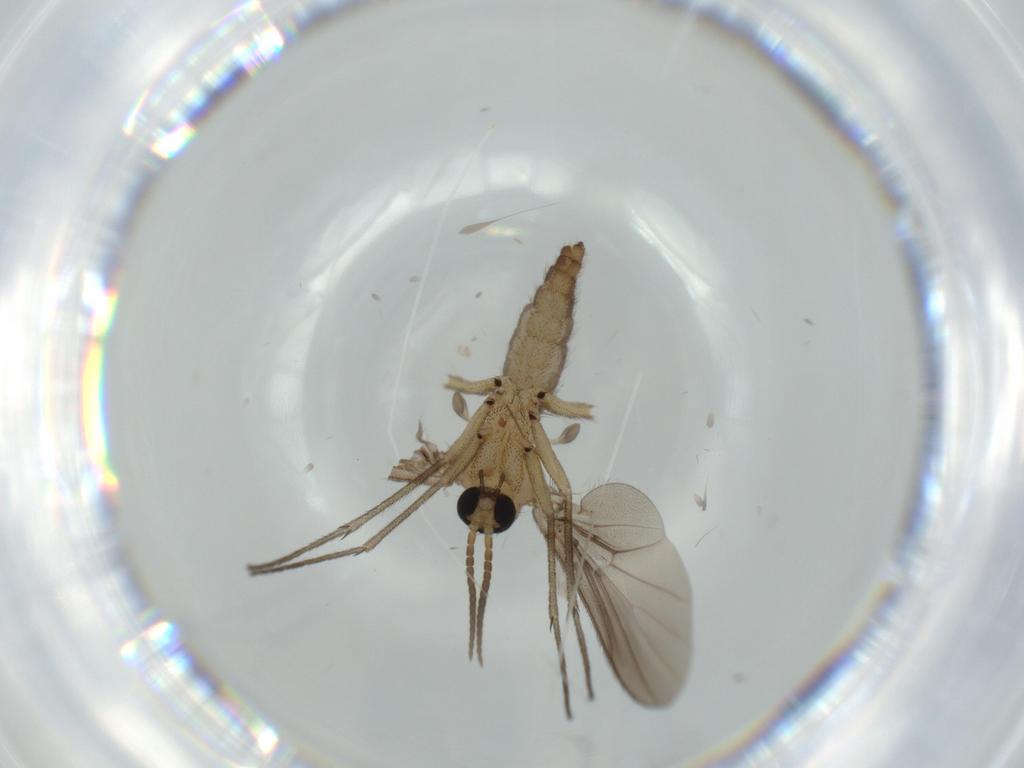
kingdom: Animalia
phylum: Arthropoda
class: Insecta
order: Diptera
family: Chironomidae
